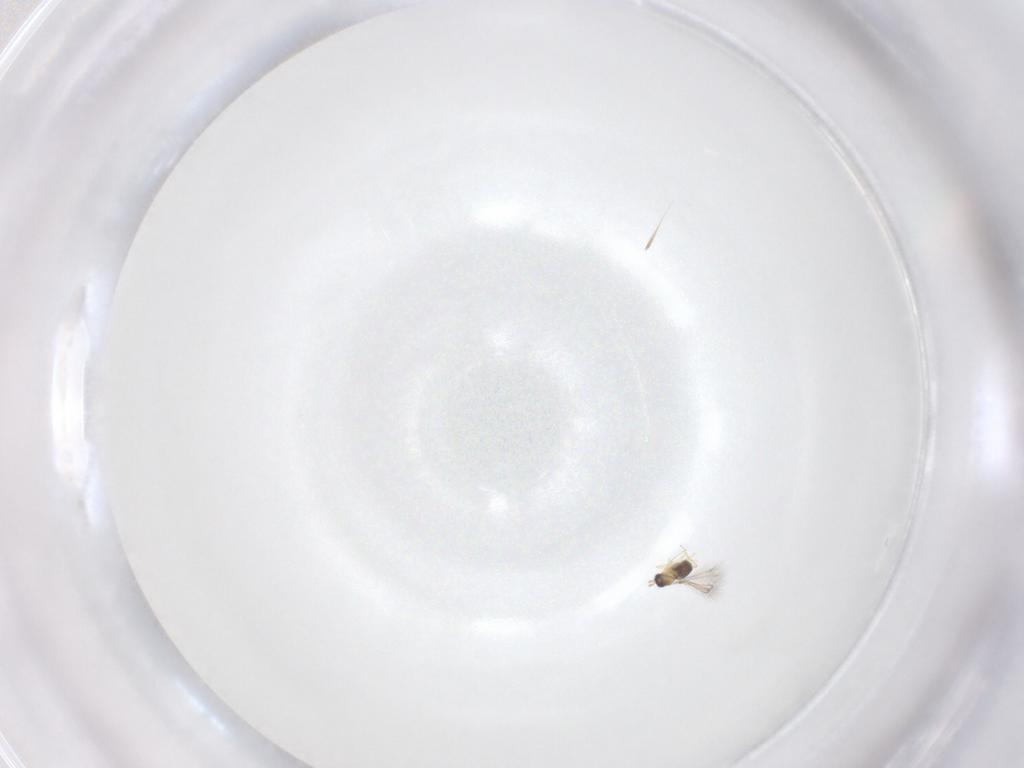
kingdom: Animalia
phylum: Arthropoda
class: Insecta
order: Hymenoptera
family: Mymaridae
